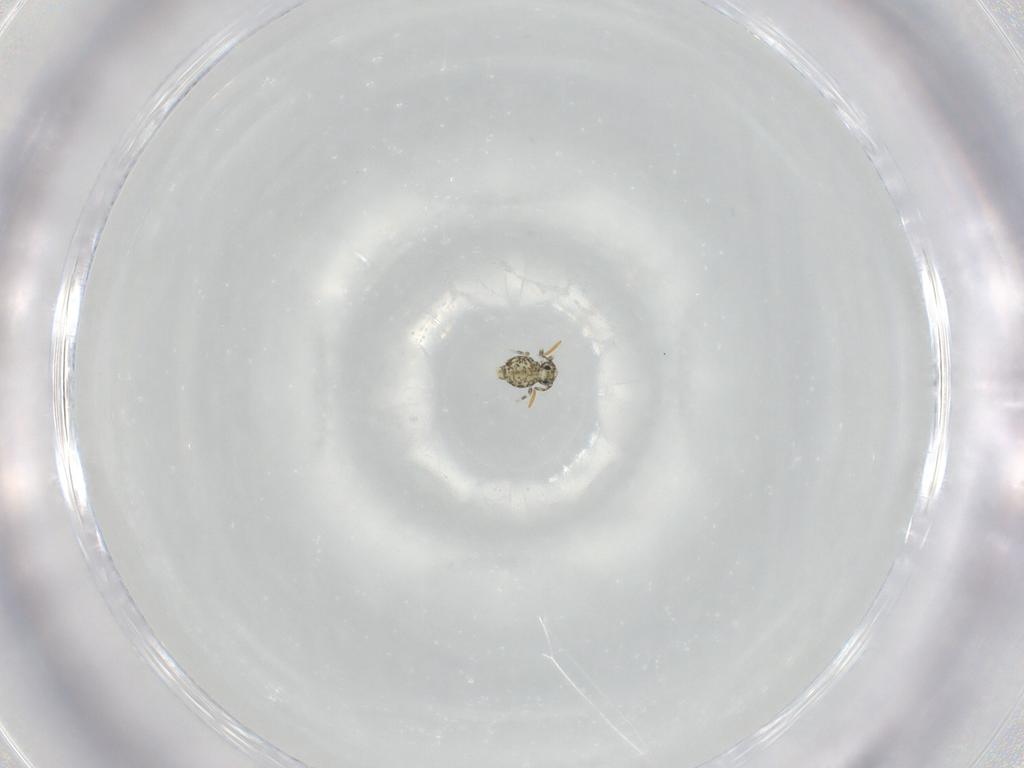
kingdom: Animalia
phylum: Arthropoda
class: Collembola
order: Symphypleona
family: Katiannidae
